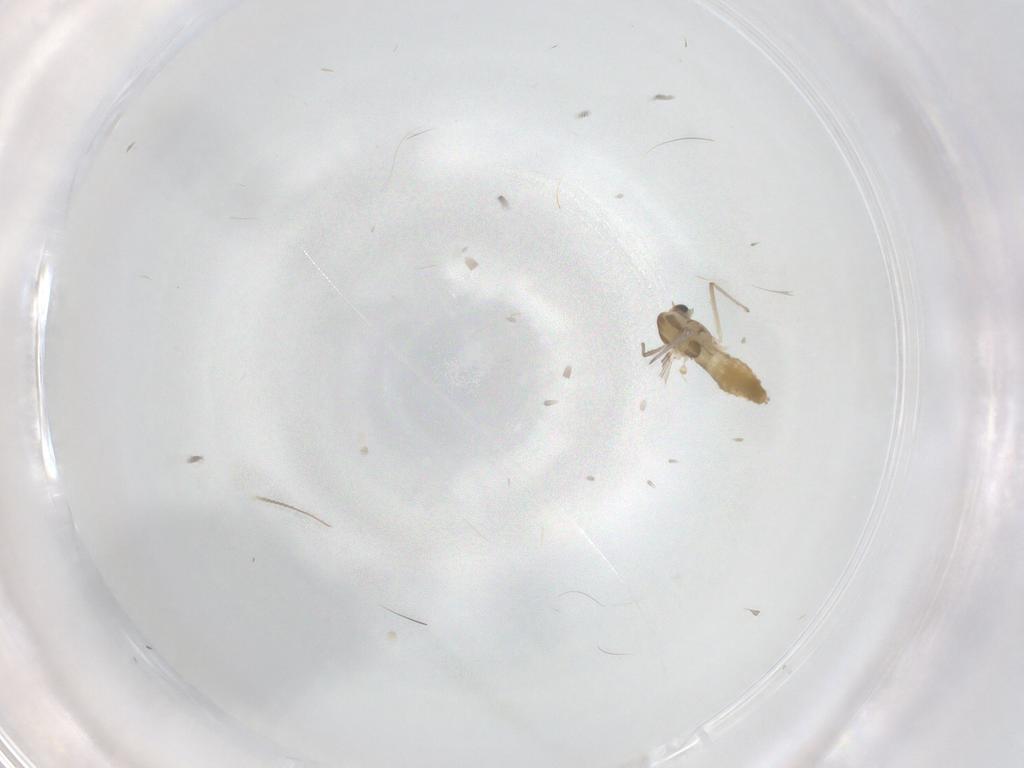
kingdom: Animalia
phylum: Arthropoda
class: Insecta
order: Diptera
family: Chironomidae
